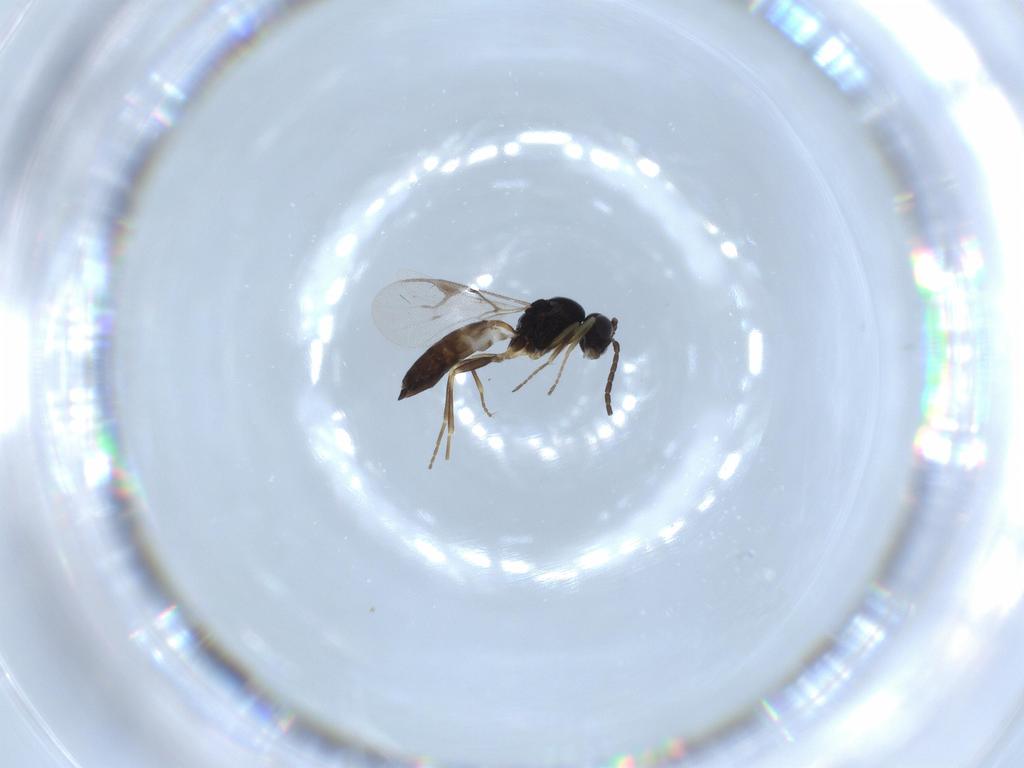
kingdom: Animalia
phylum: Arthropoda
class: Insecta
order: Hymenoptera
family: Braconidae
